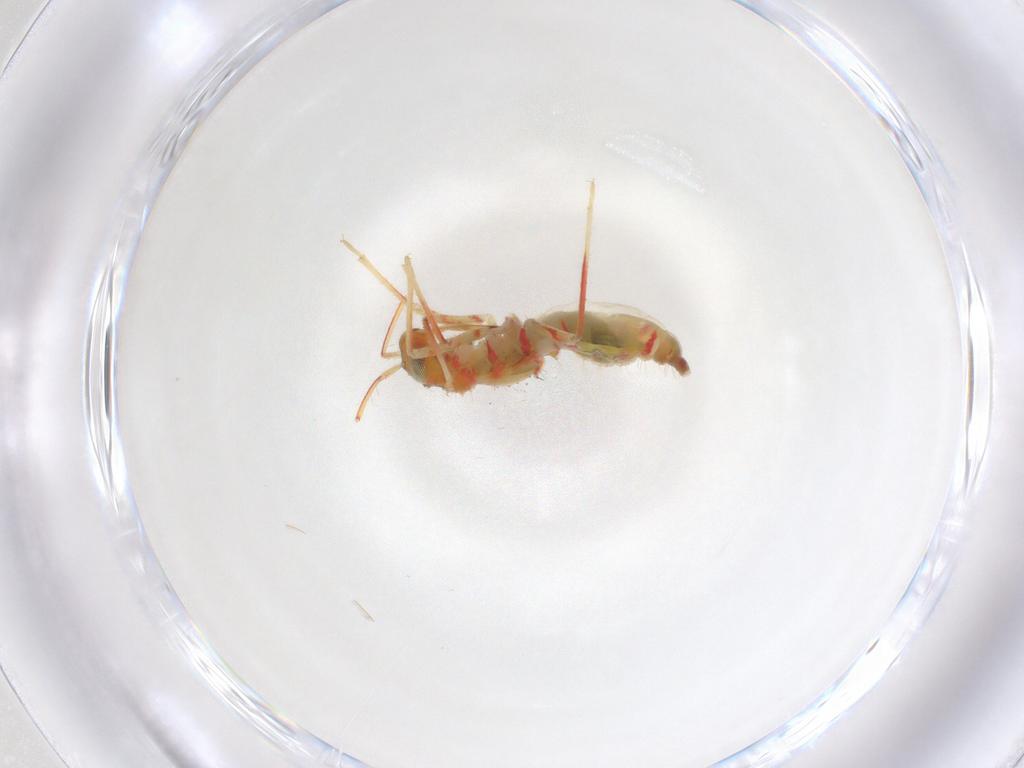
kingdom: Animalia
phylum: Arthropoda
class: Insecta
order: Hemiptera
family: Miridae
